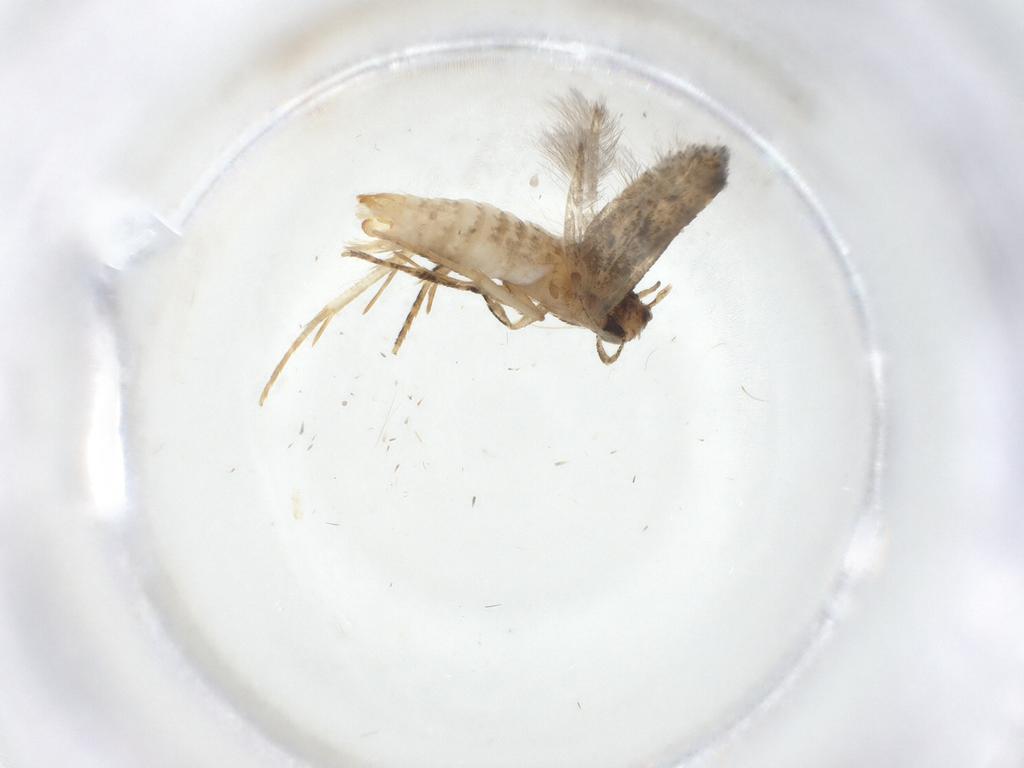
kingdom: Animalia
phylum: Arthropoda
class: Insecta
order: Lepidoptera
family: Gelechiidae
